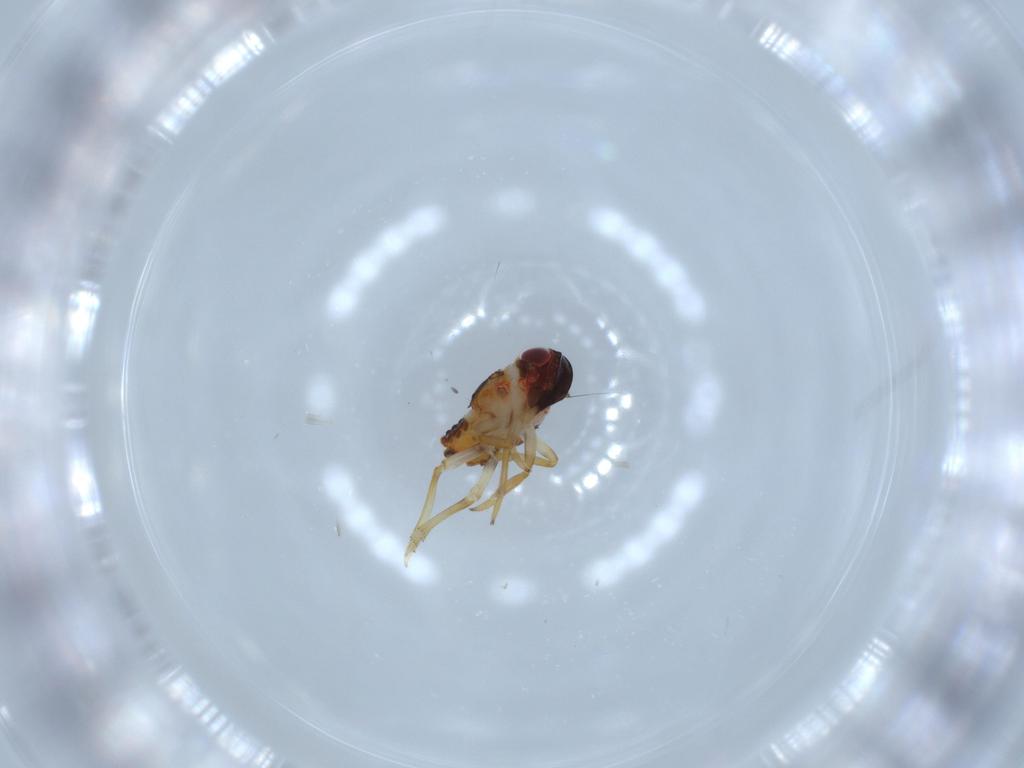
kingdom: Animalia
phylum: Arthropoda
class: Insecta
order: Hemiptera
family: Issidae
